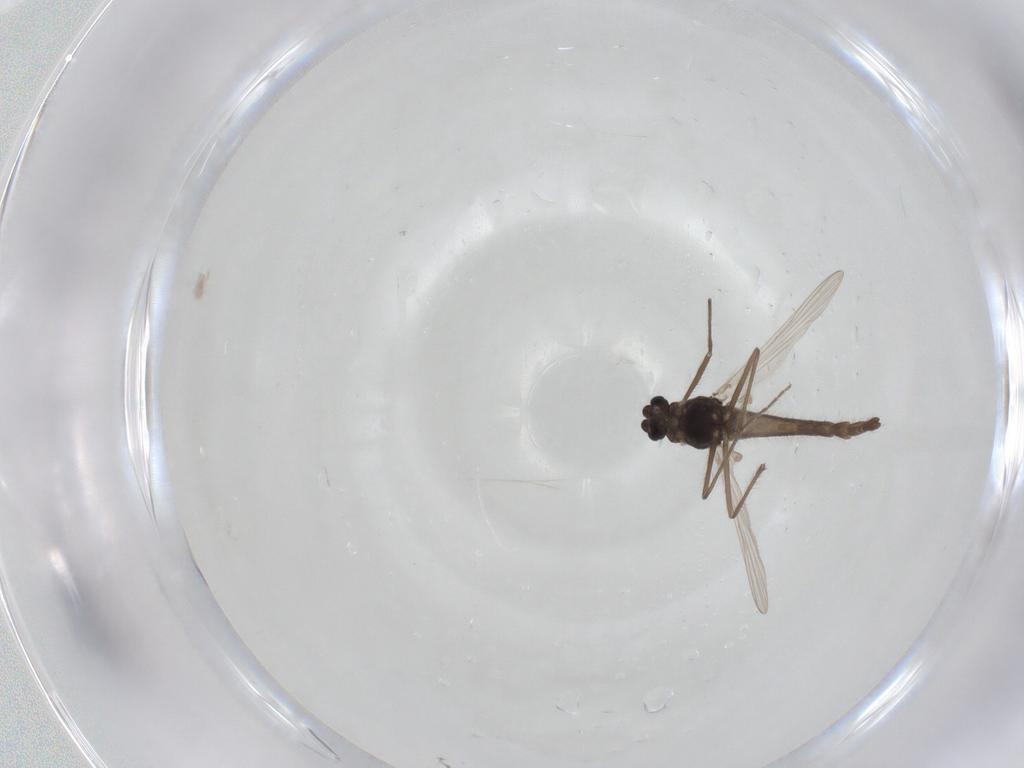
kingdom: Animalia
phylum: Arthropoda
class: Insecta
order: Diptera
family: Chironomidae
